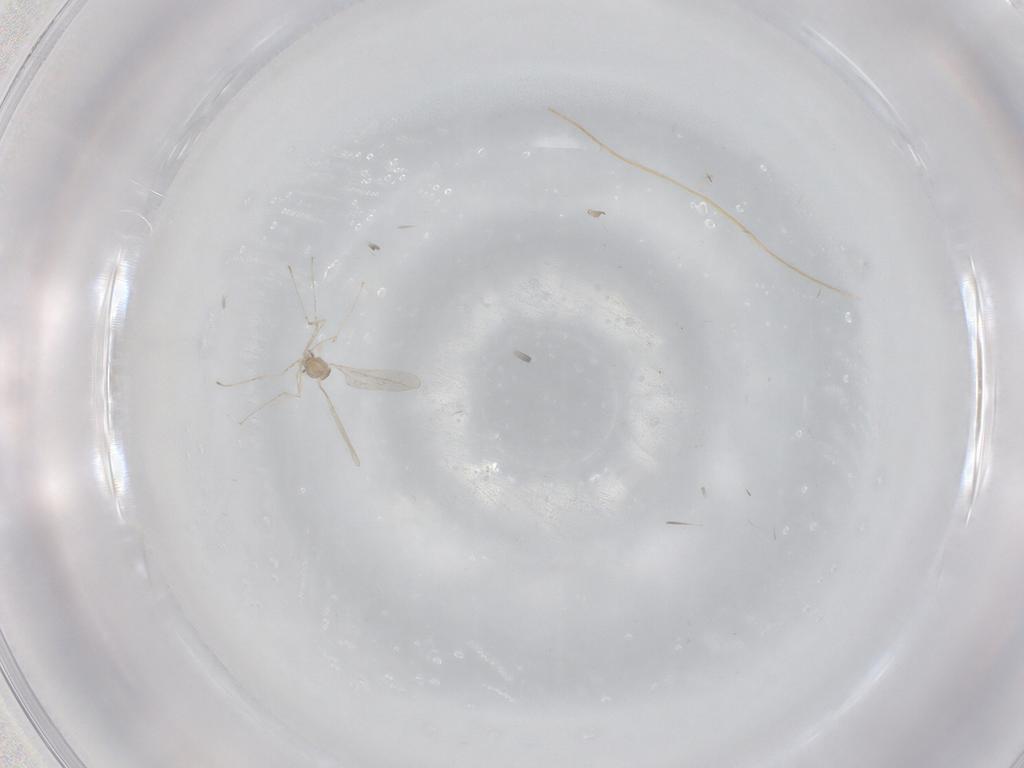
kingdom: Animalia
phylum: Arthropoda
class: Insecta
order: Diptera
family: Cecidomyiidae
